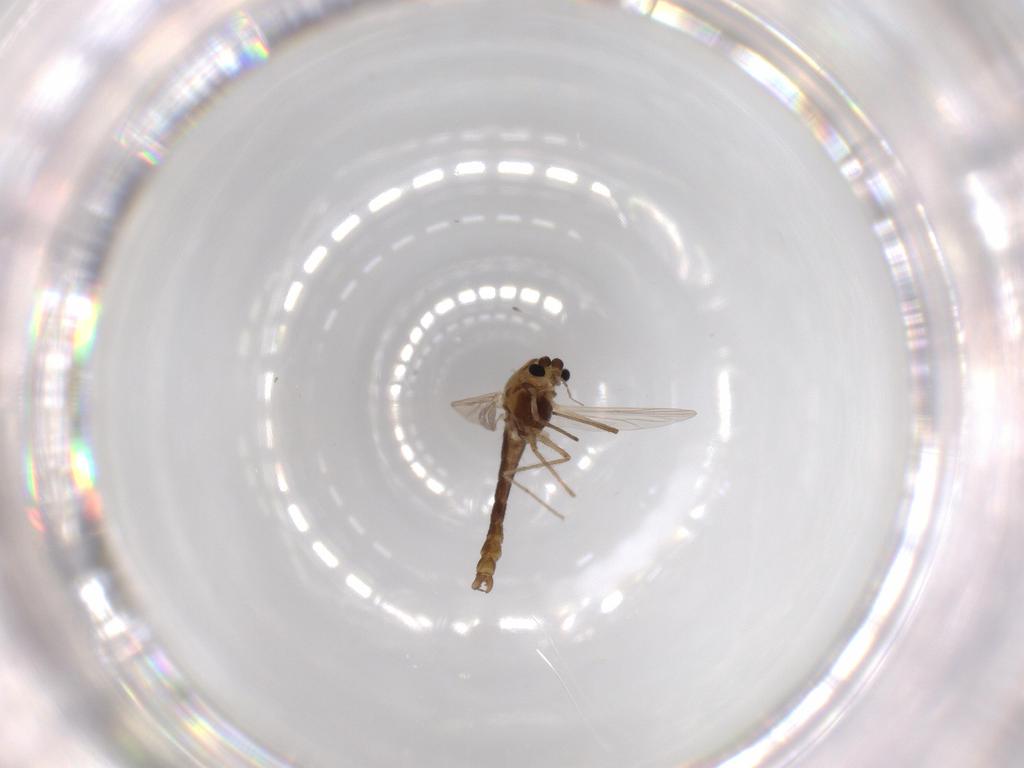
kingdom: Animalia
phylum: Arthropoda
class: Insecta
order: Diptera
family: Chironomidae
